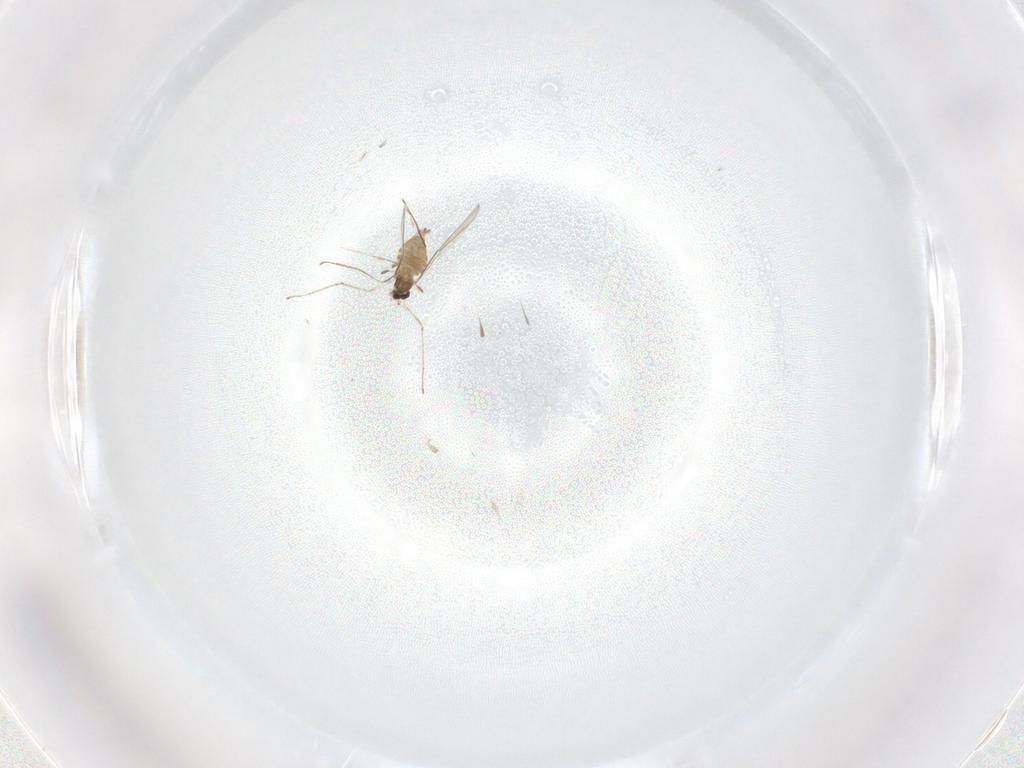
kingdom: Animalia
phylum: Arthropoda
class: Insecta
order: Diptera
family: Cecidomyiidae
